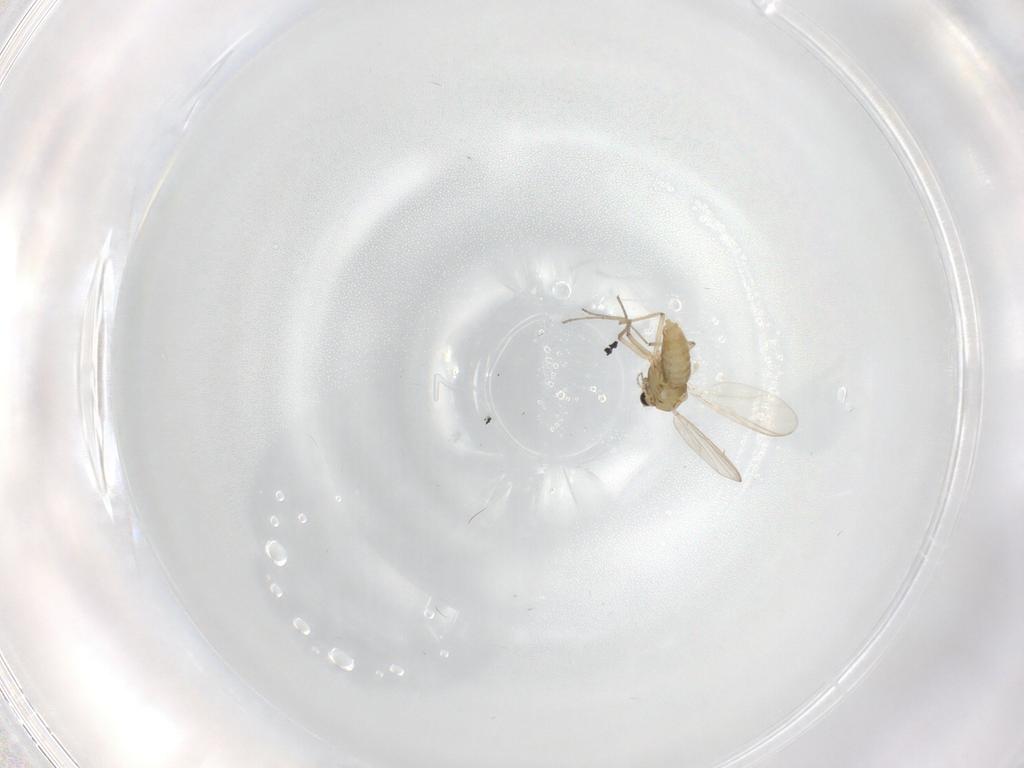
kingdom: Animalia
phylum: Arthropoda
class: Insecta
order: Diptera
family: Chironomidae
